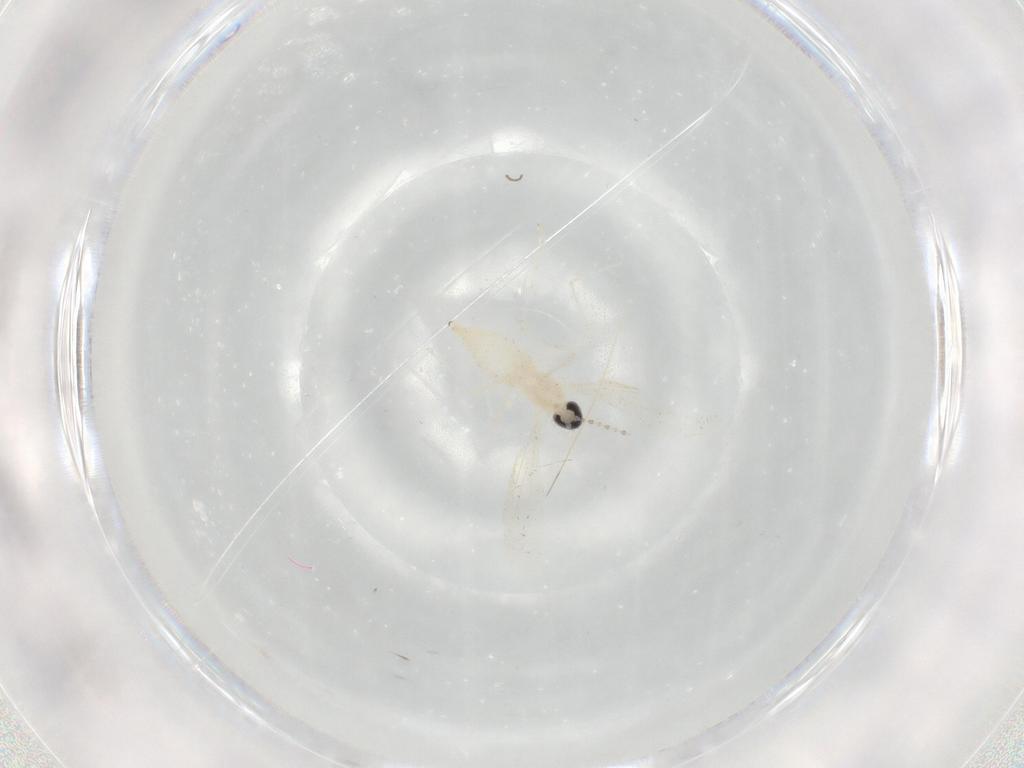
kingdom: Animalia
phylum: Arthropoda
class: Insecta
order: Diptera
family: Cecidomyiidae
